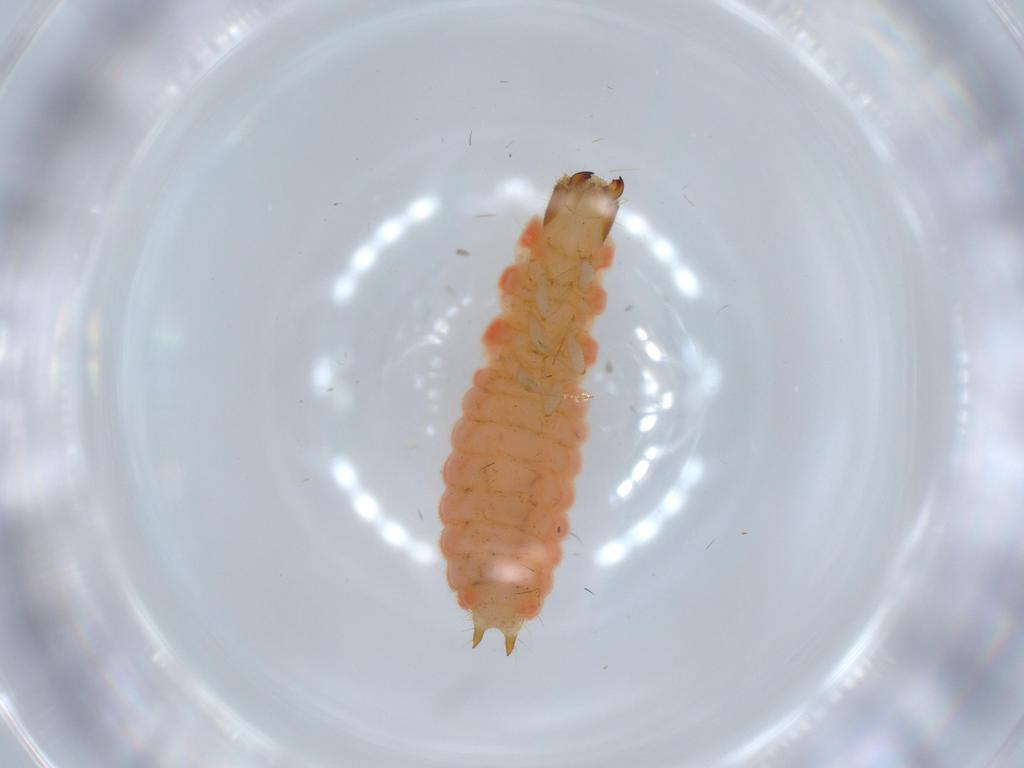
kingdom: Animalia
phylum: Arthropoda
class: Insecta
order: Coleoptera
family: Melyridae
